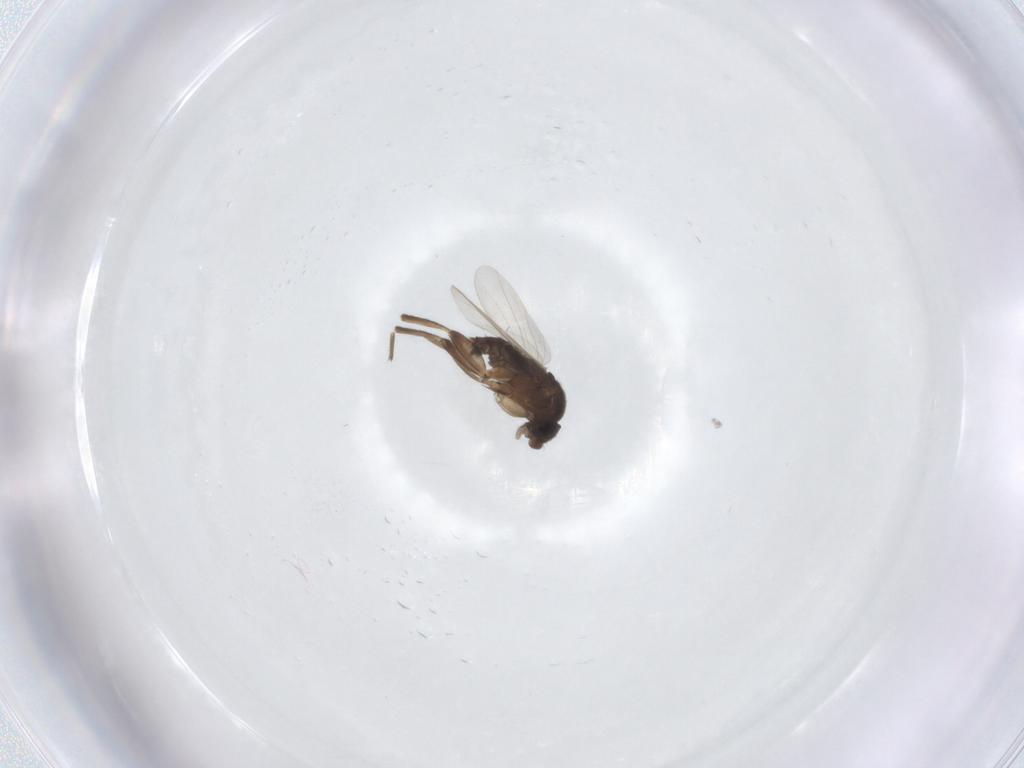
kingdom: Animalia
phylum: Arthropoda
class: Insecta
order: Diptera
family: Phoridae
